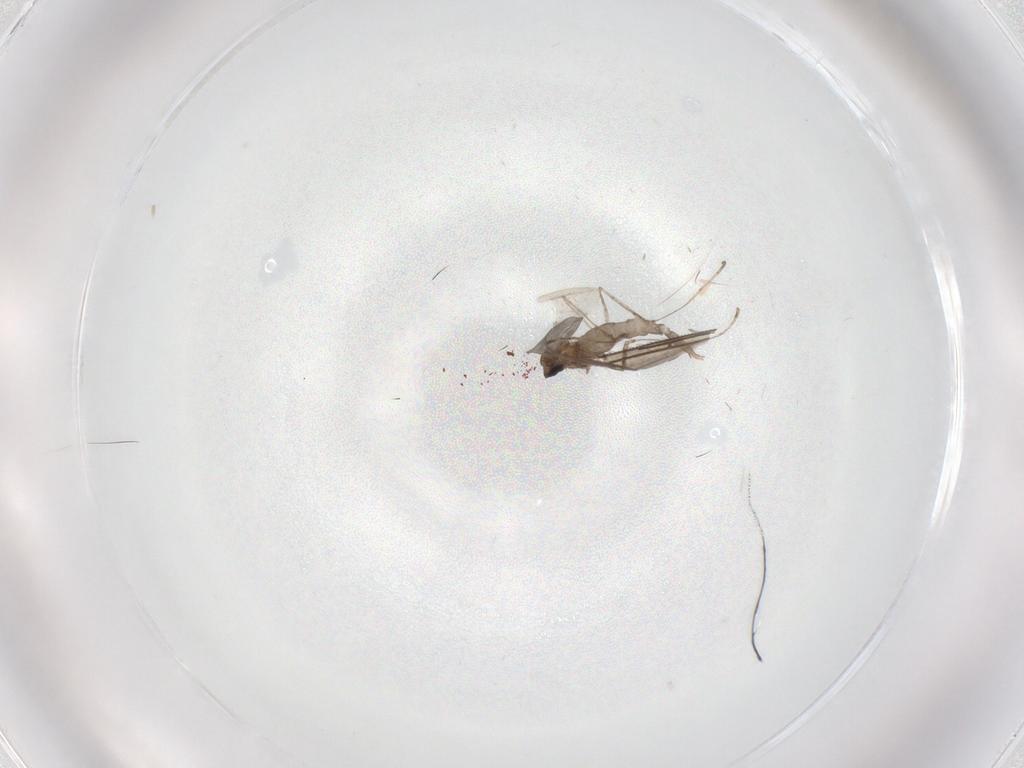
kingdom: Animalia
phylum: Arthropoda
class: Insecta
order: Diptera
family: Cecidomyiidae
